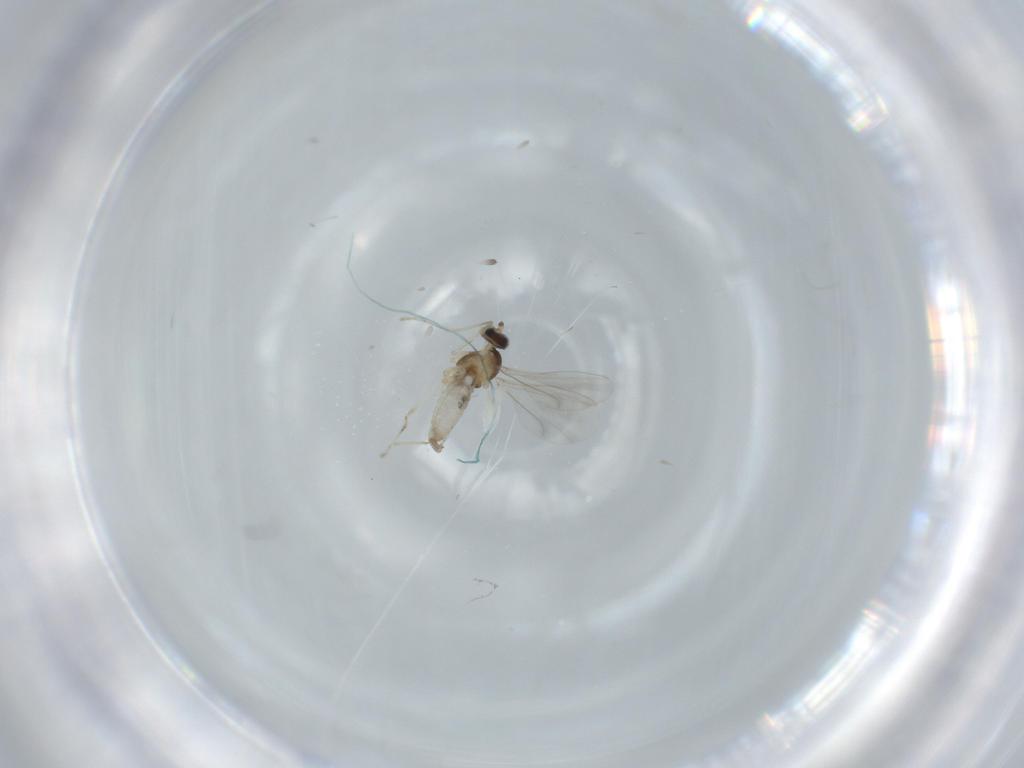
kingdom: Animalia
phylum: Arthropoda
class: Insecta
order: Diptera
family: Cecidomyiidae
